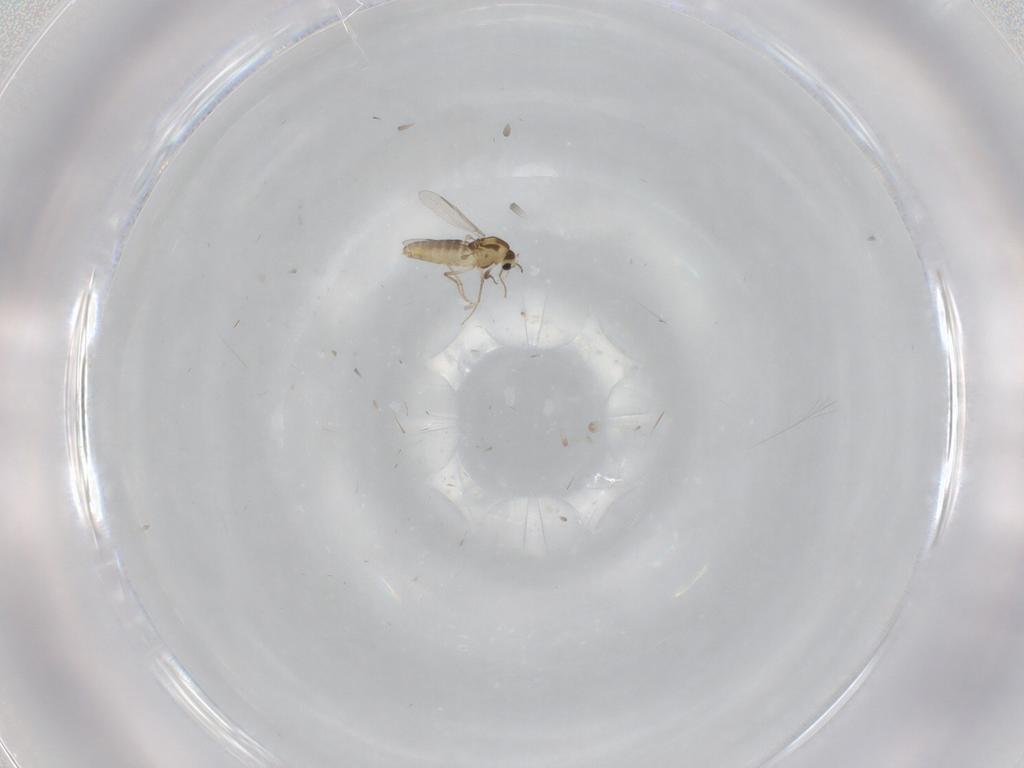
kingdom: Animalia
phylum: Arthropoda
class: Insecta
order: Diptera
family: Chironomidae
